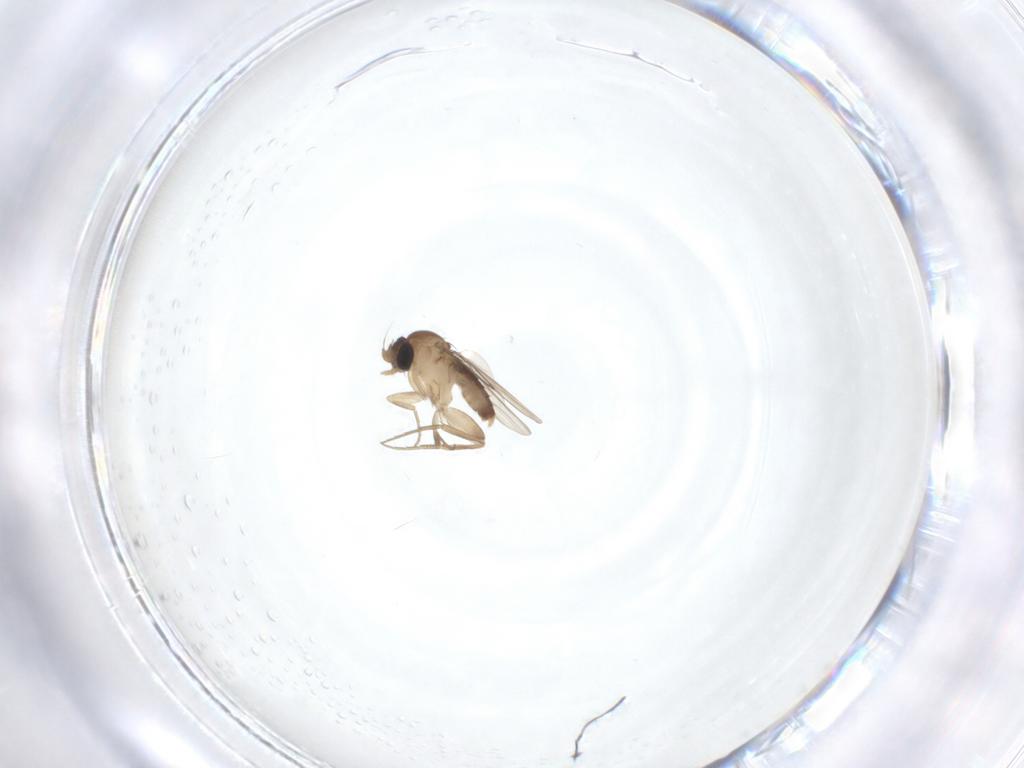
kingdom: Animalia
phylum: Arthropoda
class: Insecta
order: Diptera
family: Phoridae
